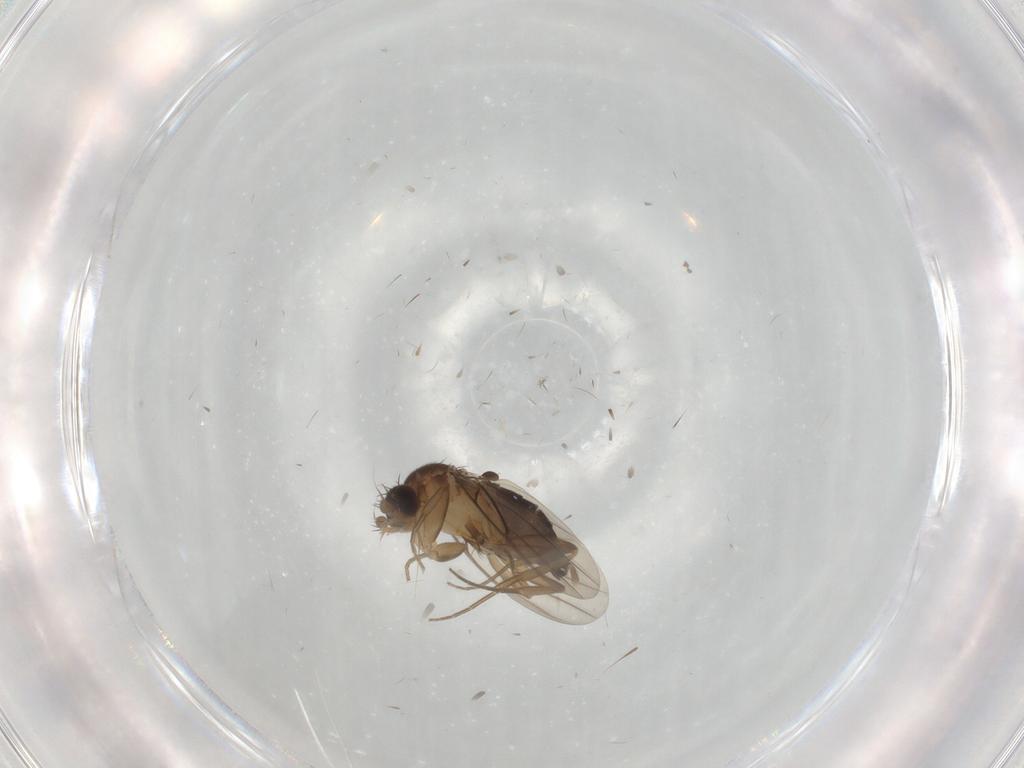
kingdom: Animalia
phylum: Arthropoda
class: Insecta
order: Diptera
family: Phoridae
